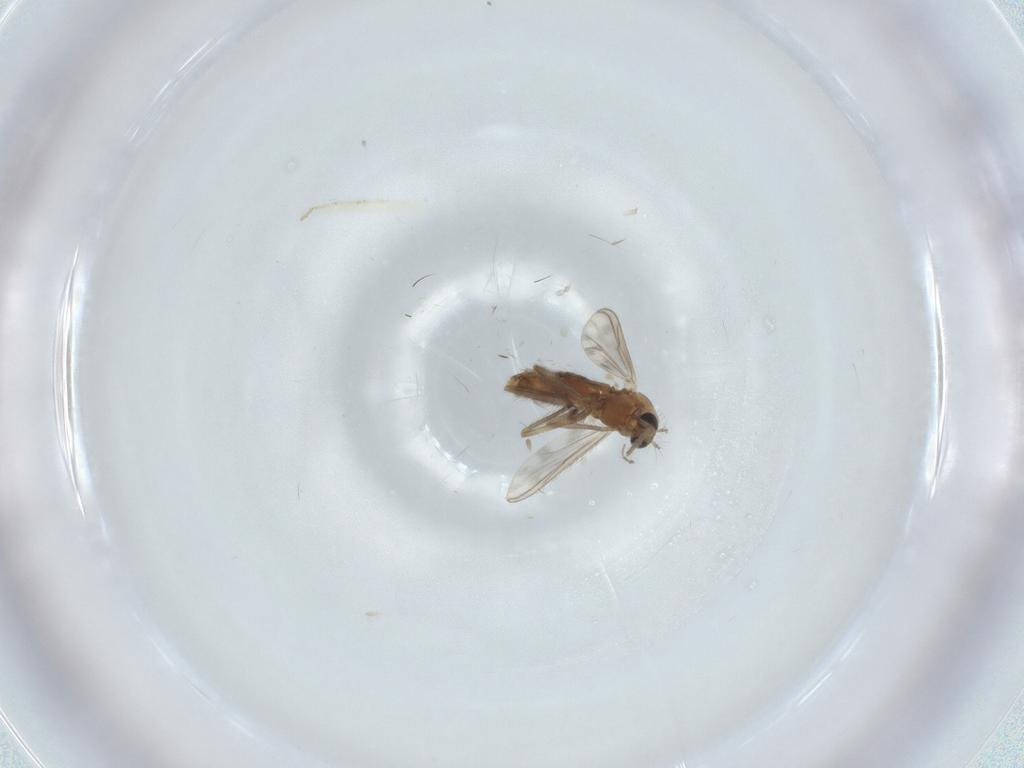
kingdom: Animalia
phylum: Arthropoda
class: Insecta
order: Diptera
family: Chironomidae
